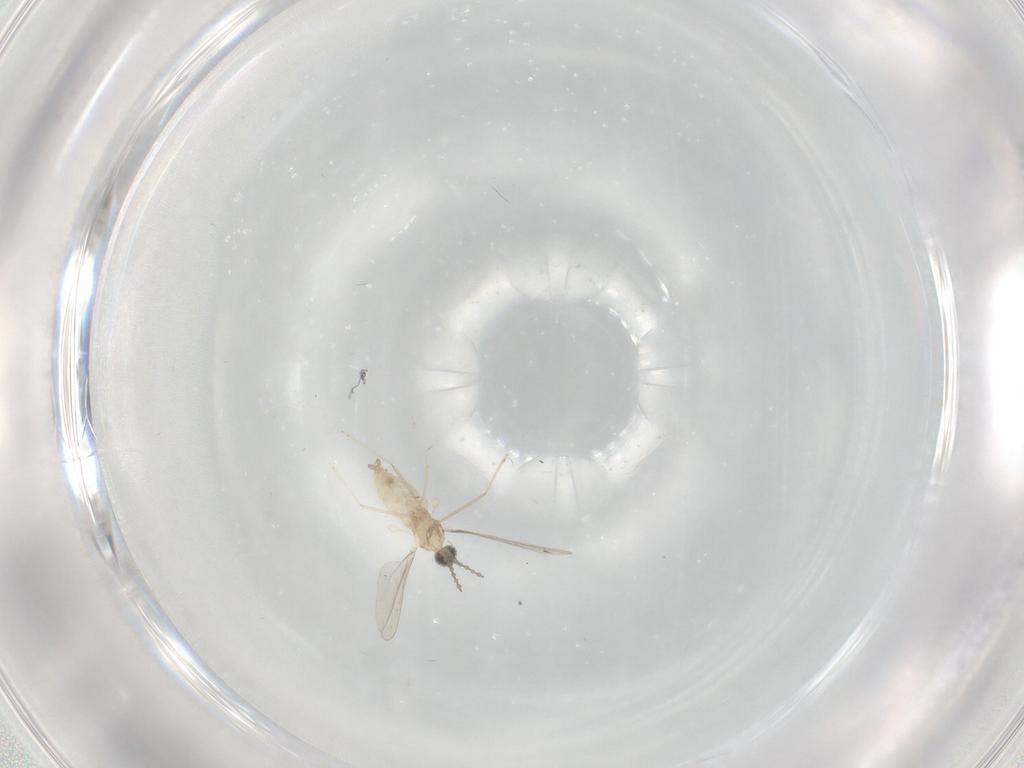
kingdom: Animalia
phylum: Arthropoda
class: Insecta
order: Diptera
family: Cecidomyiidae
